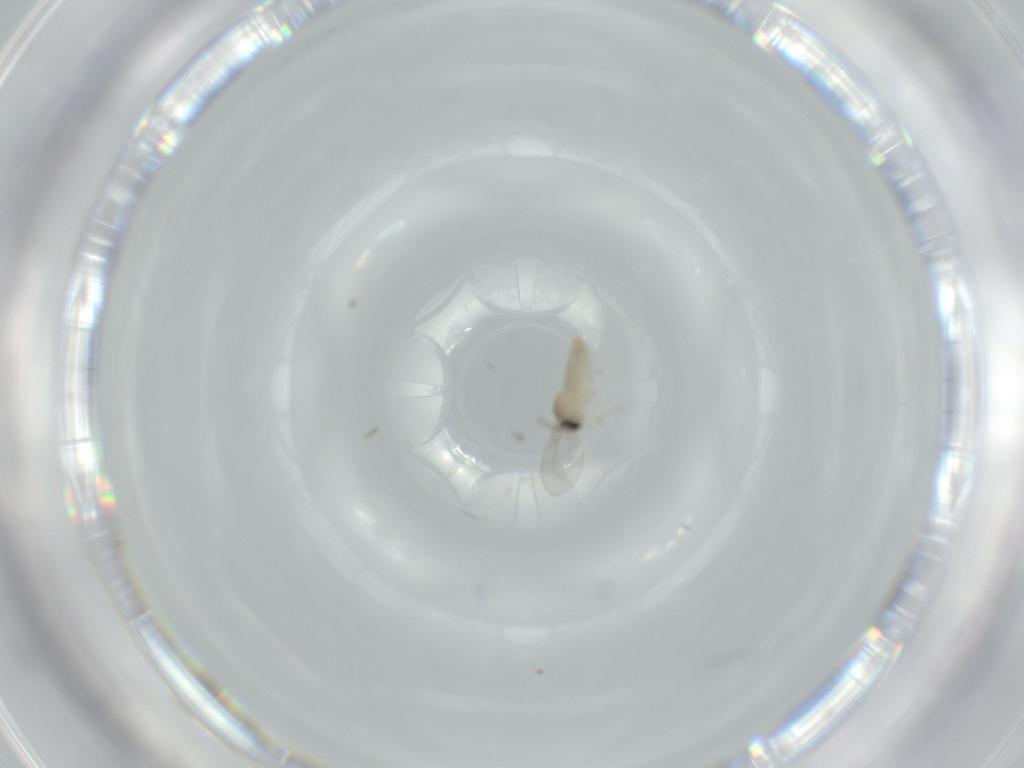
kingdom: Animalia
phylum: Arthropoda
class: Insecta
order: Diptera
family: Cecidomyiidae
